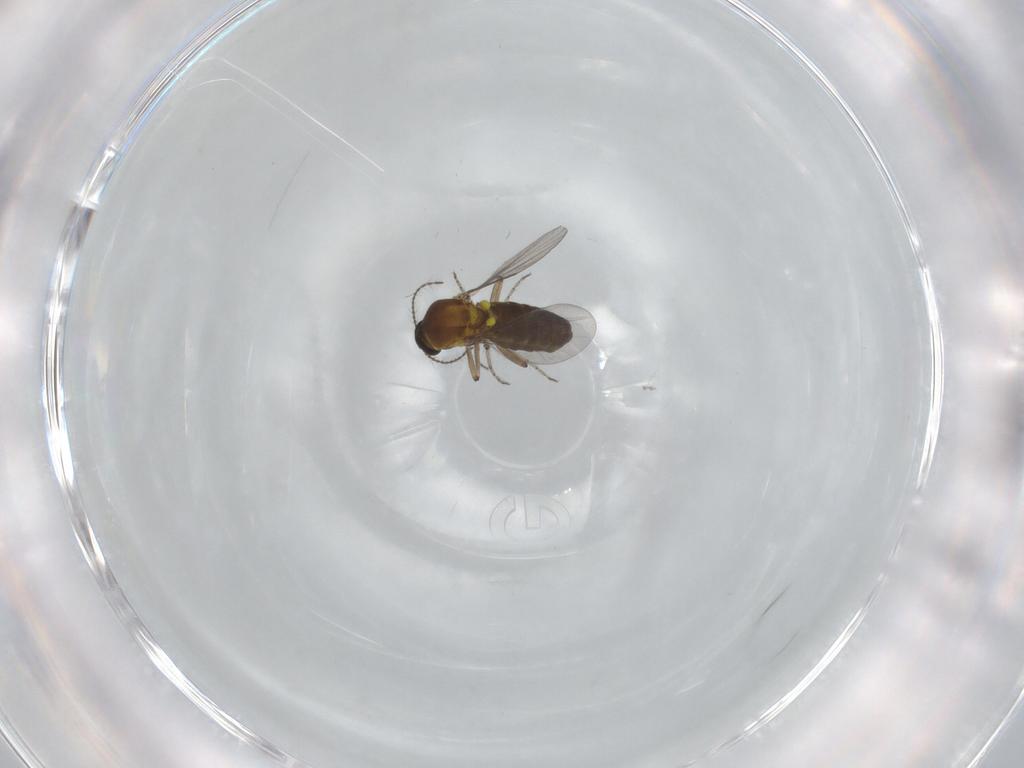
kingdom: Animalia
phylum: Arthropoda
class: Insecta
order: Diptera
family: Ceratopogonidae
